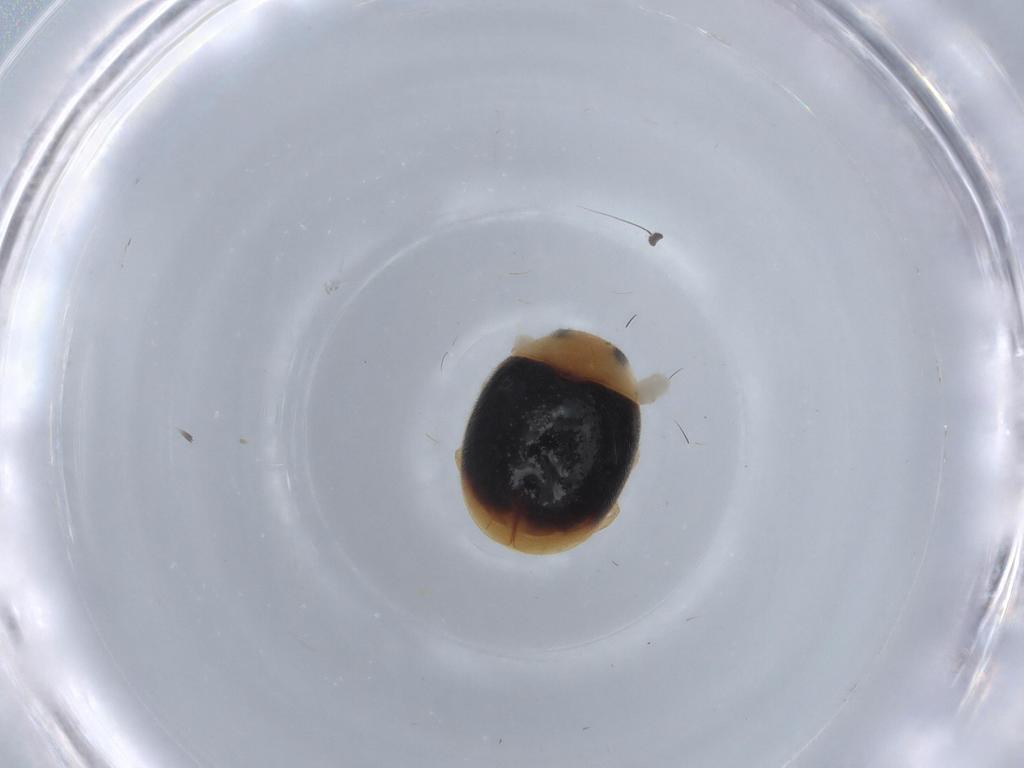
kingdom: Animalia
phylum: Arthropoda
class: Insecta
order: Coleoptera
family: Coccinellidae
